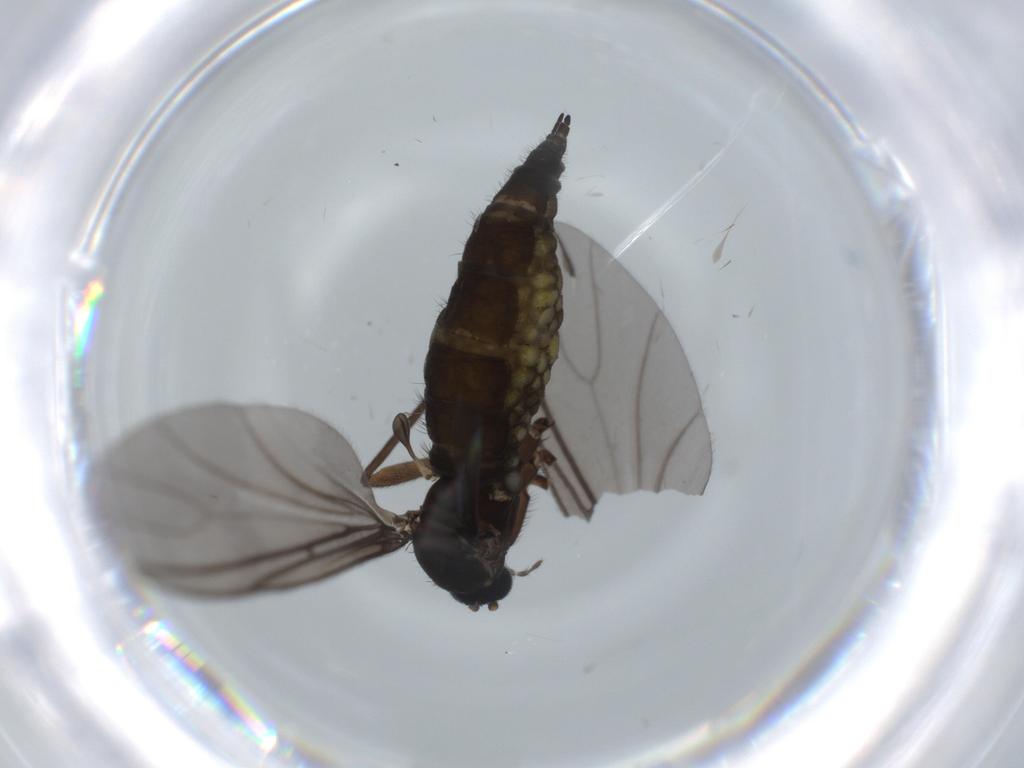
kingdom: Animalia
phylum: Arthropoda
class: Insecta
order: Diptera
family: Sciaridae
